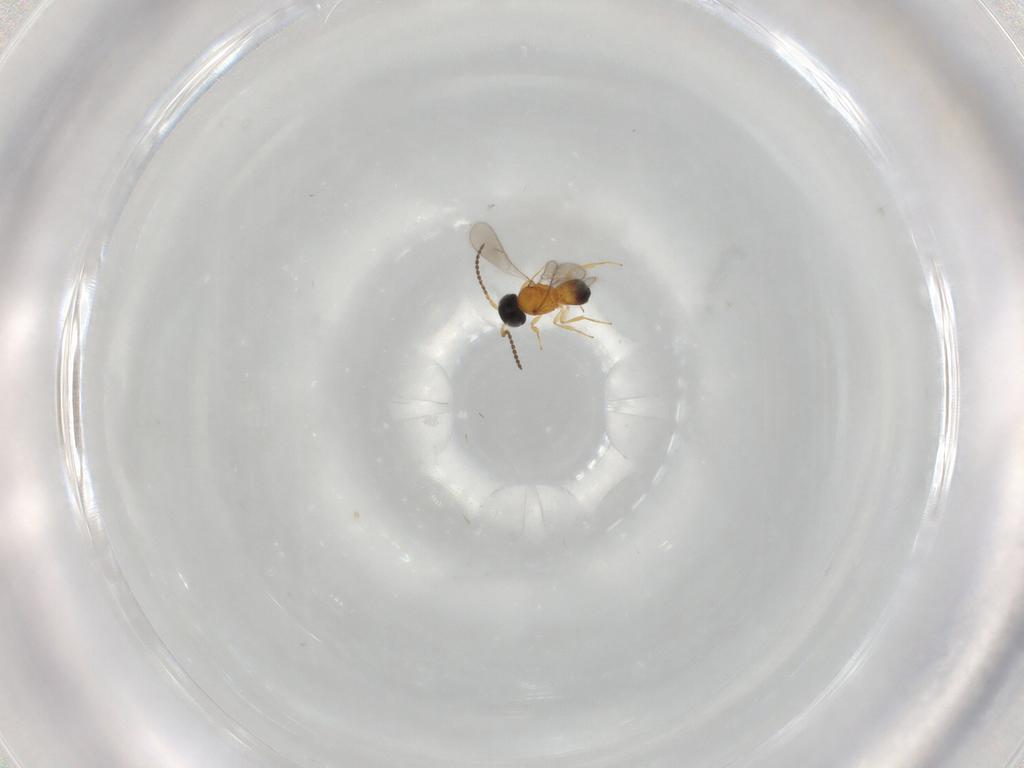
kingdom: Animalia
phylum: Arthropoda
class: Insecta
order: Hymenoptera
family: Scelionidae
